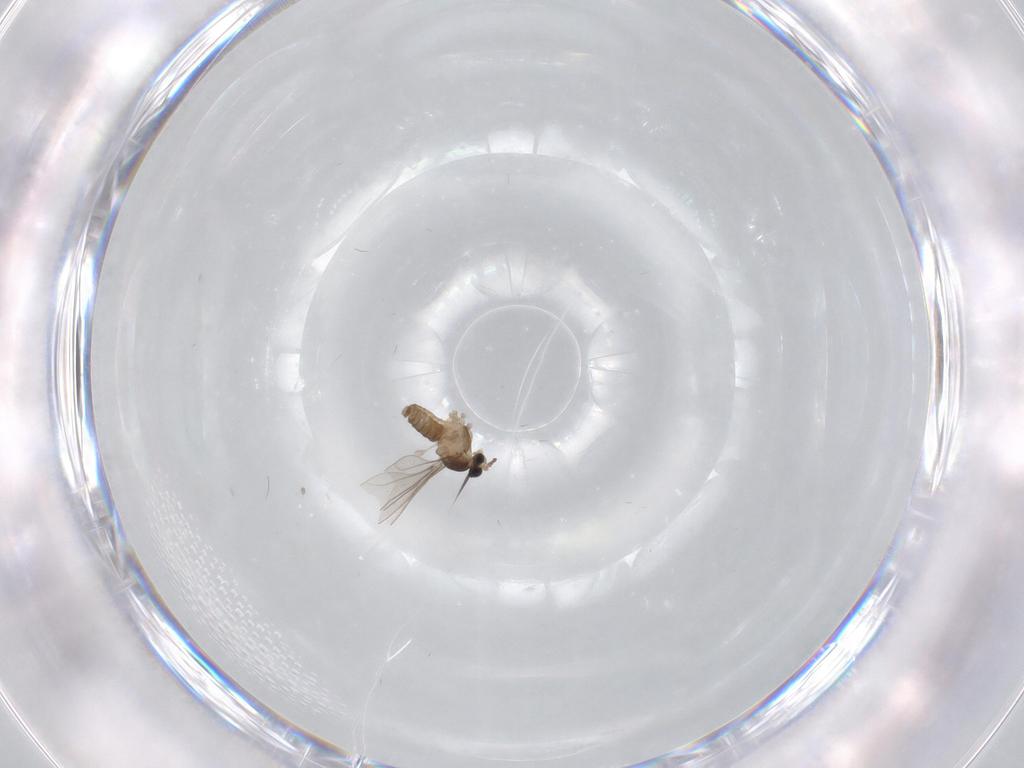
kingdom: Animalia
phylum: Arthropoda
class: Insecta
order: Diptera
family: Cecidomyiidae
